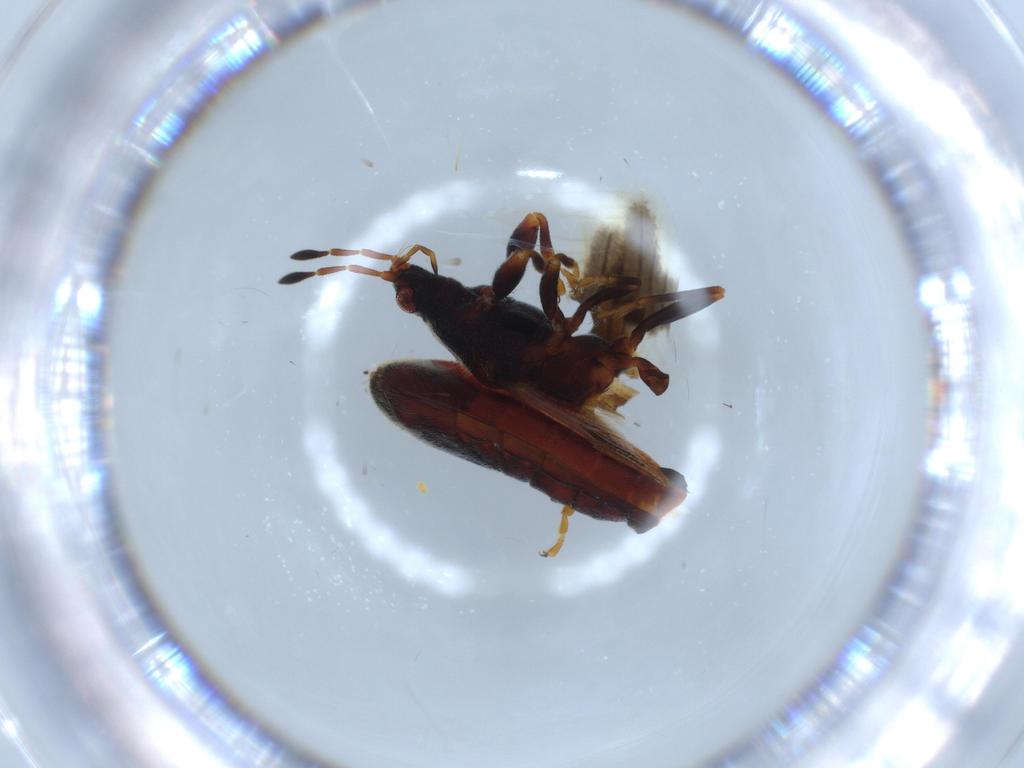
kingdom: Animalia
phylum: Arthropoda
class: Insecta
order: Hemiptera
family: Blissidae
